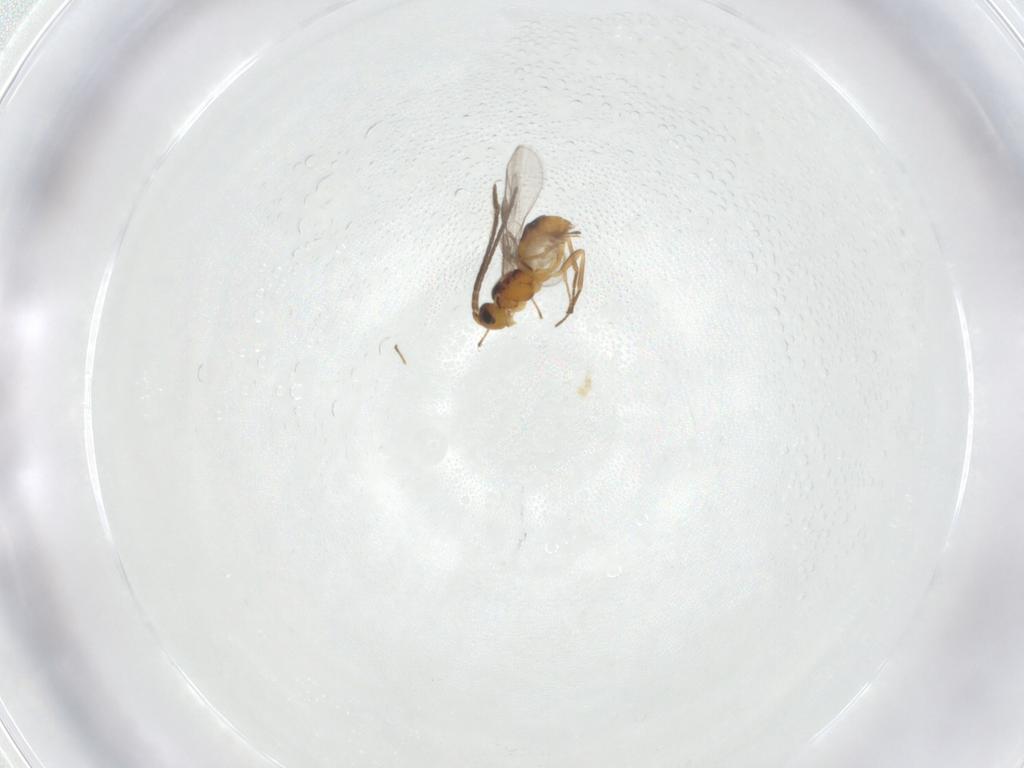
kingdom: Animalia
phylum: Arthropoda
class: Insecta
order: Hymenoptera
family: Braconidae
